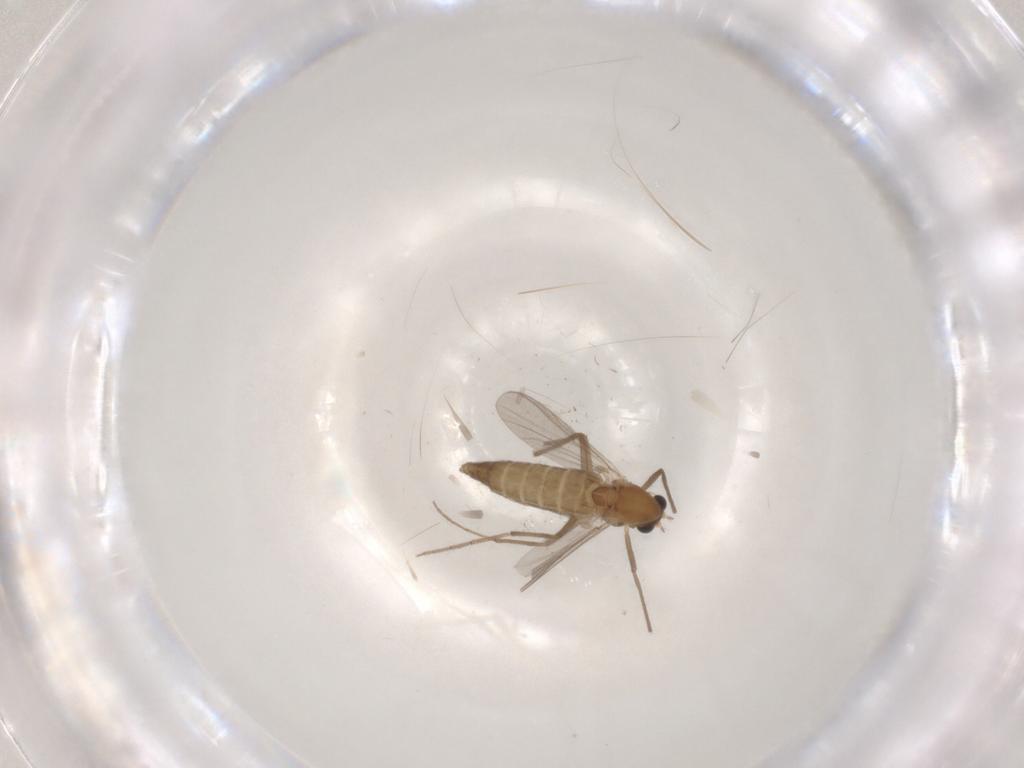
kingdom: Animalia
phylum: Arthropoda
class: Insecta
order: Diptera
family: Chironomidae
